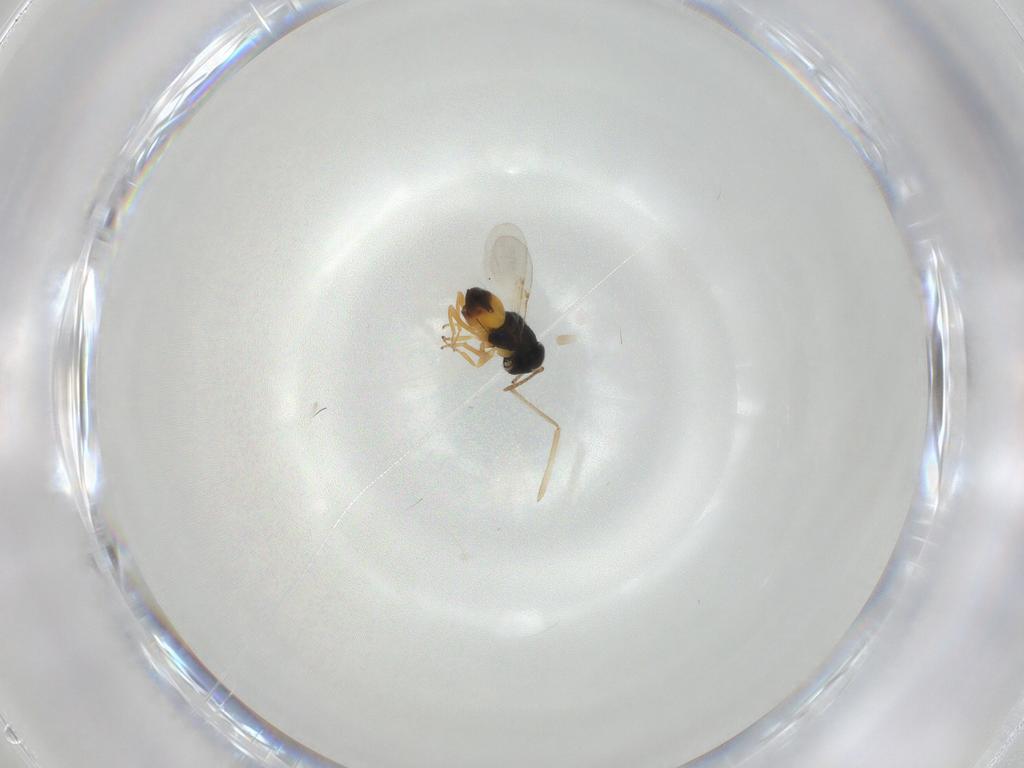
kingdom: Animalia
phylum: Arthropoda
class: Insecta
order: Hymenoptera
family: Encyrtidae
